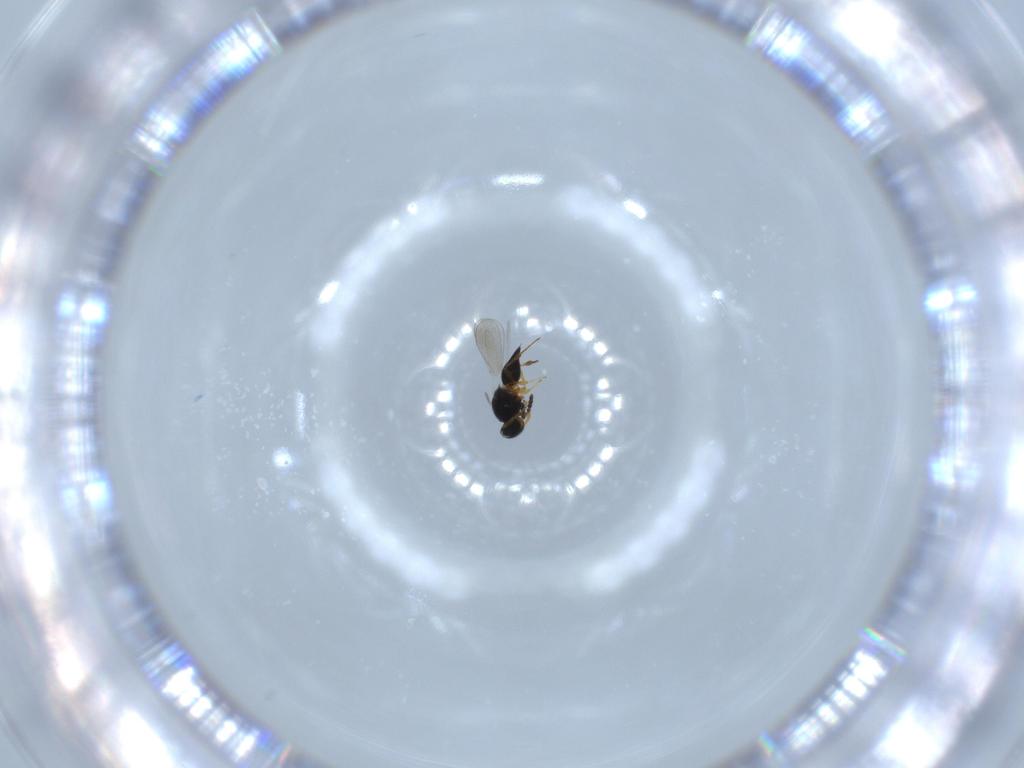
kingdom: Animalia
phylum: Arthropoda
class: Insecta
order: Hymenoptera
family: Platygastridae
